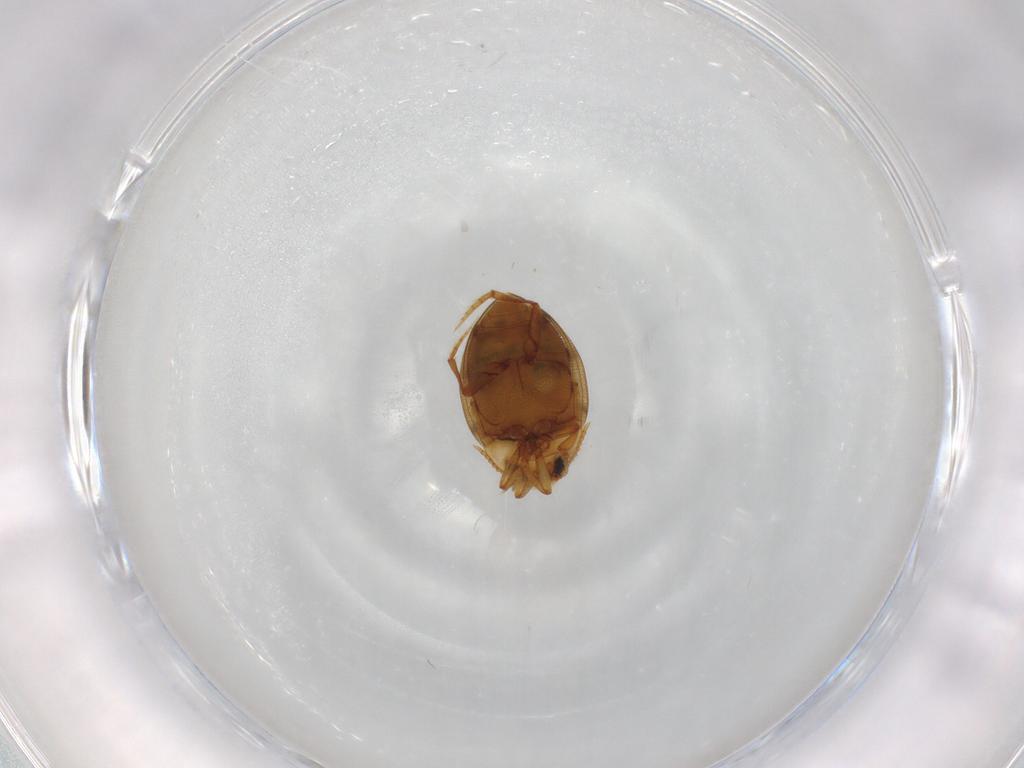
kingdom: Animalia
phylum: Arthropoda
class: Insecta
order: Coleoptera
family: Dytiscidae
